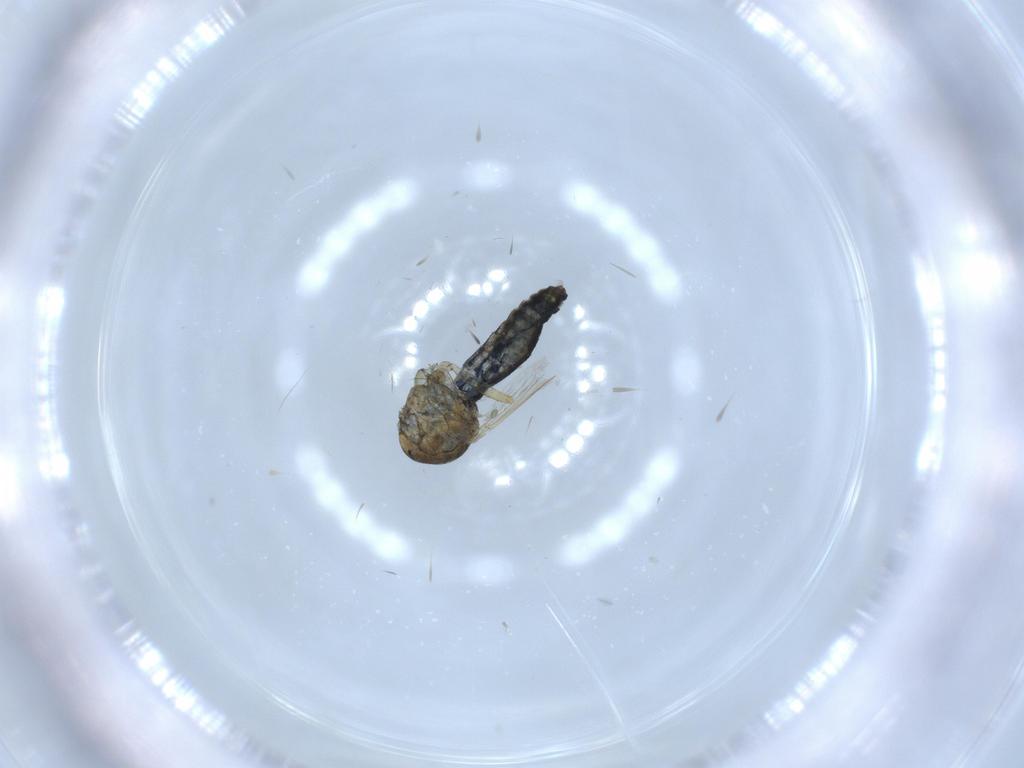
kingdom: Animalia
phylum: Arthropoda
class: Insecta
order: Diptera
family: Ceratopogonidae
